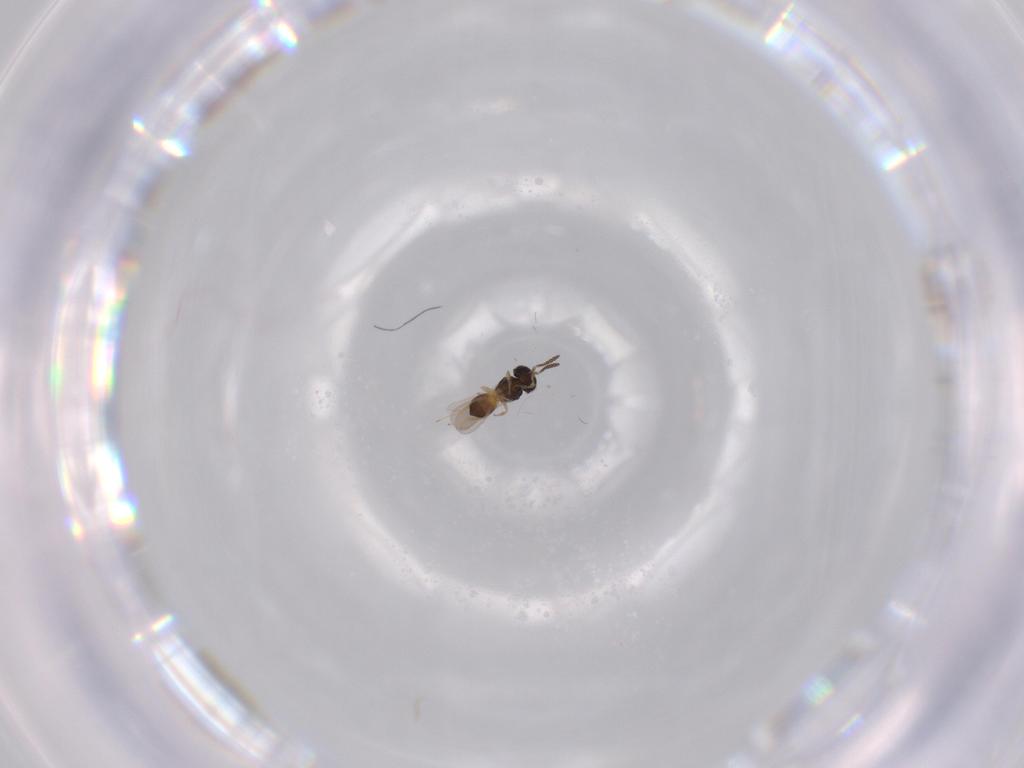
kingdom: Animalia
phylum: Arthropoda
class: Insecta
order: Hymenoptera
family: Scelionidae
